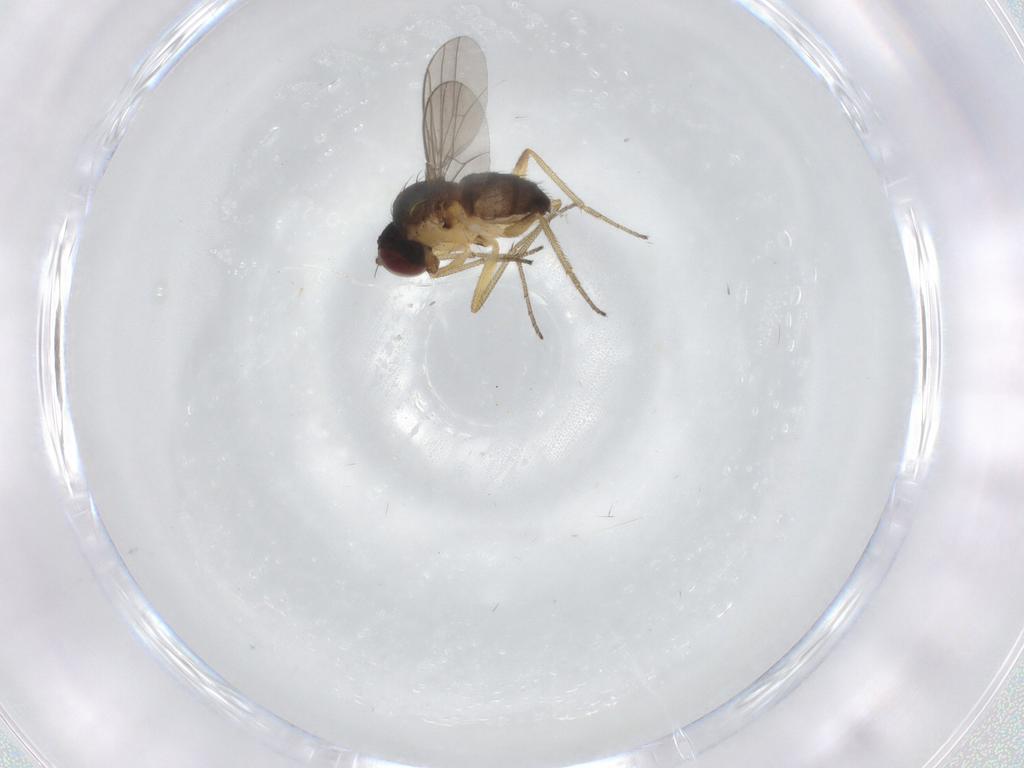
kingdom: Animalia
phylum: Arthropoda
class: Insecta
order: Diptera
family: Dolichopodidae
